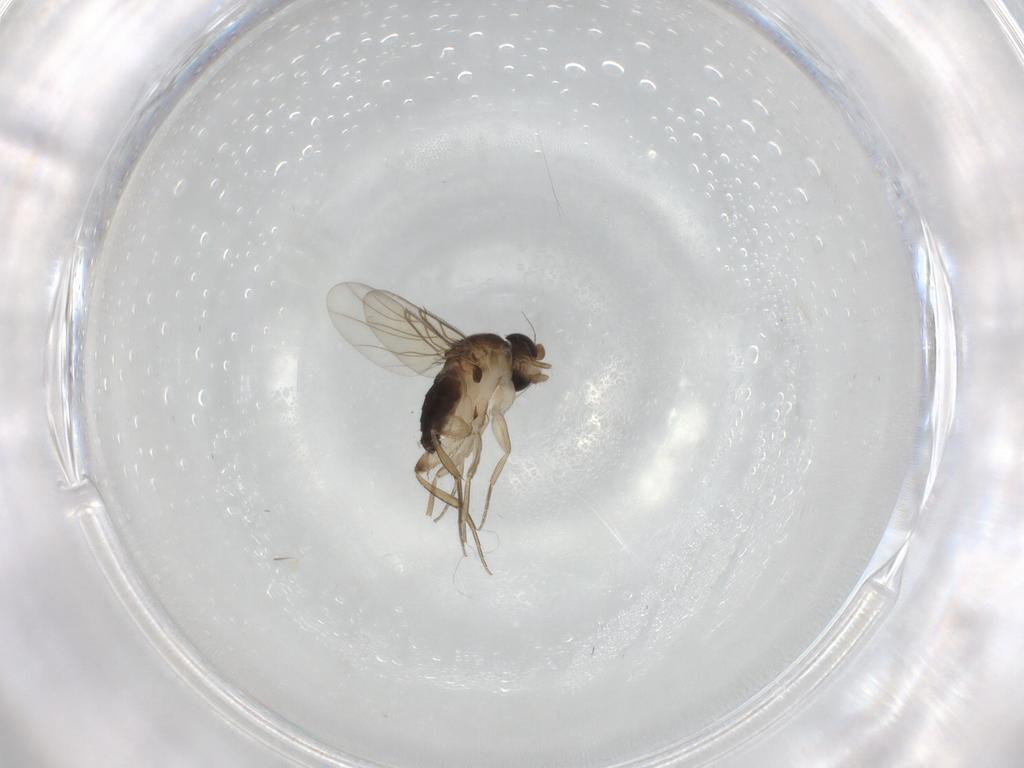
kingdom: Animalia
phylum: Arthropoda
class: Insecta
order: Diptera
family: Phoridae
